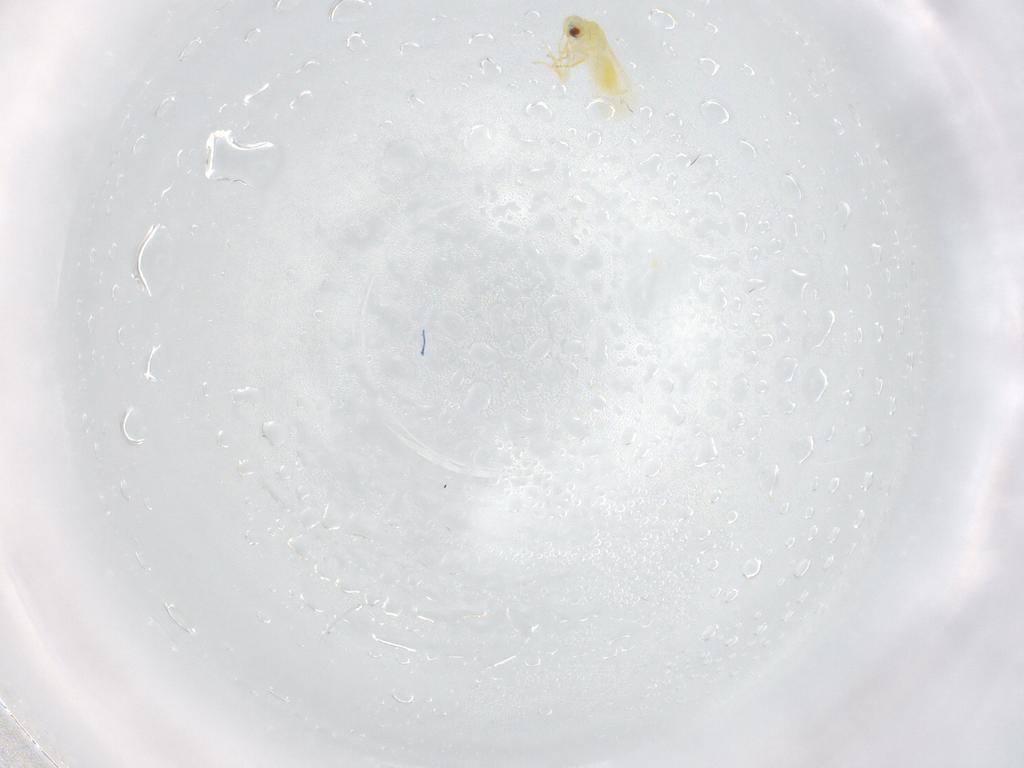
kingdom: Animalia
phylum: Arthropoda
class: Insecta
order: Hemiptera
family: Aleyrodidae
